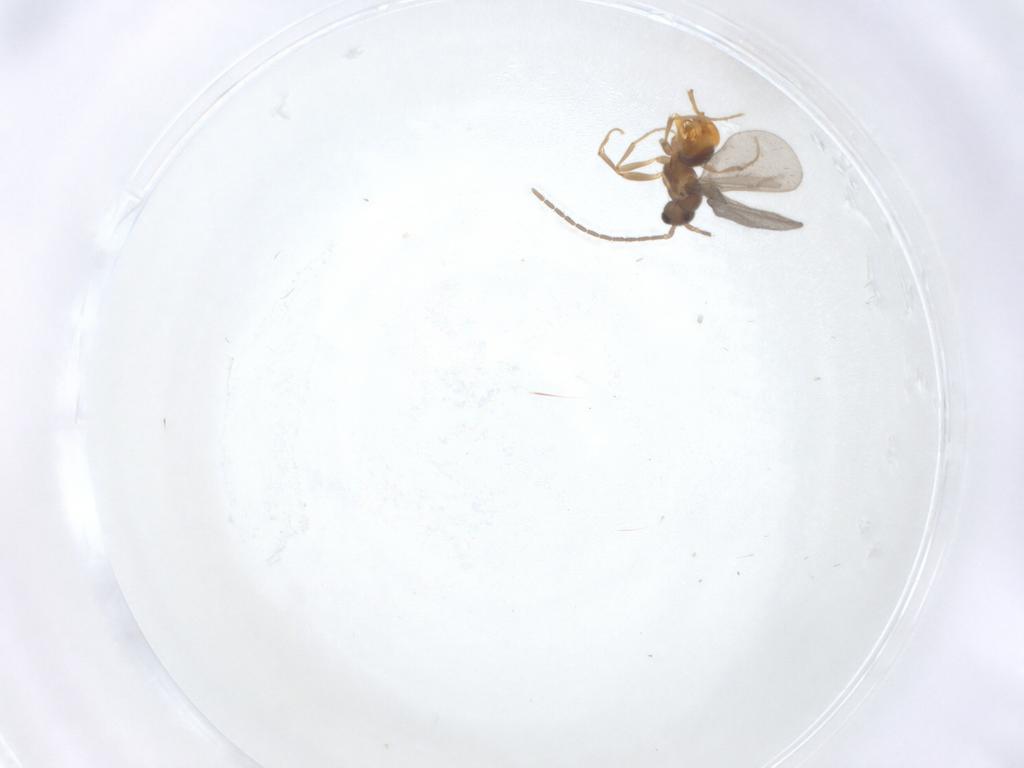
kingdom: Animalia
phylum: Arthropoda
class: Insecta
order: Hymenoptera
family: Formicidae
